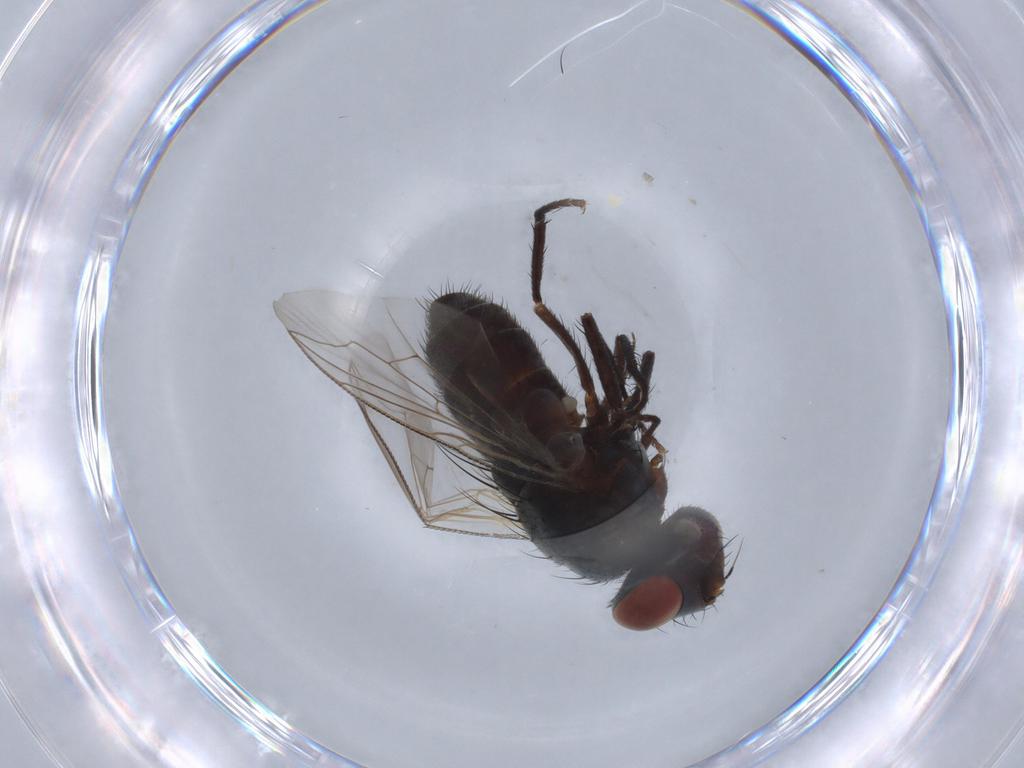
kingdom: Animalia
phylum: Arthropoda
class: Insecta
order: Diptera
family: Sarcophagidae
